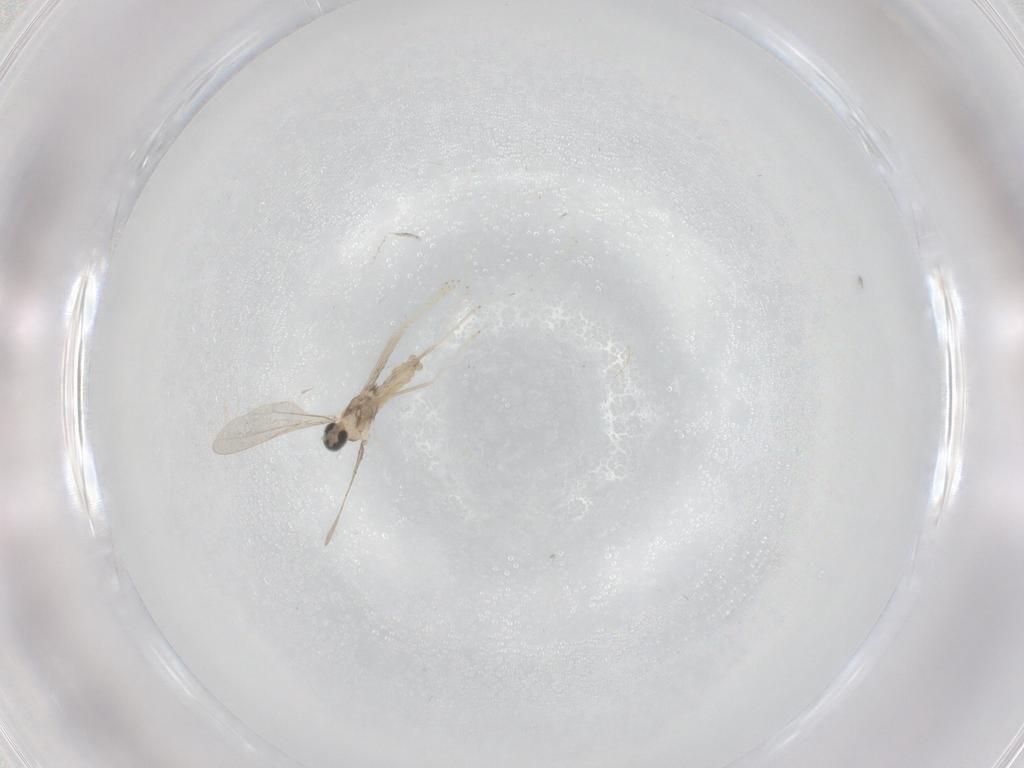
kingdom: Animalia
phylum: Arthropoda
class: Insecta
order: Diptera
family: Cecidomyiidae
